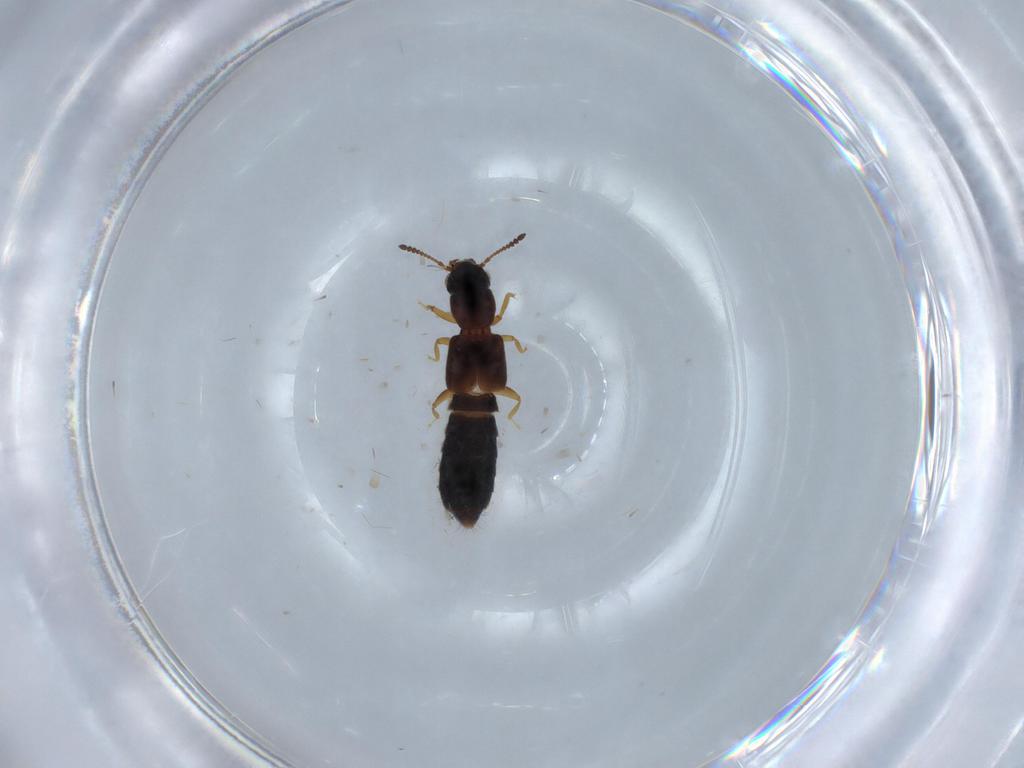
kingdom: Animalia
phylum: Arthropoda
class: Insecta
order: Coleoptera
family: Staphylinidae
